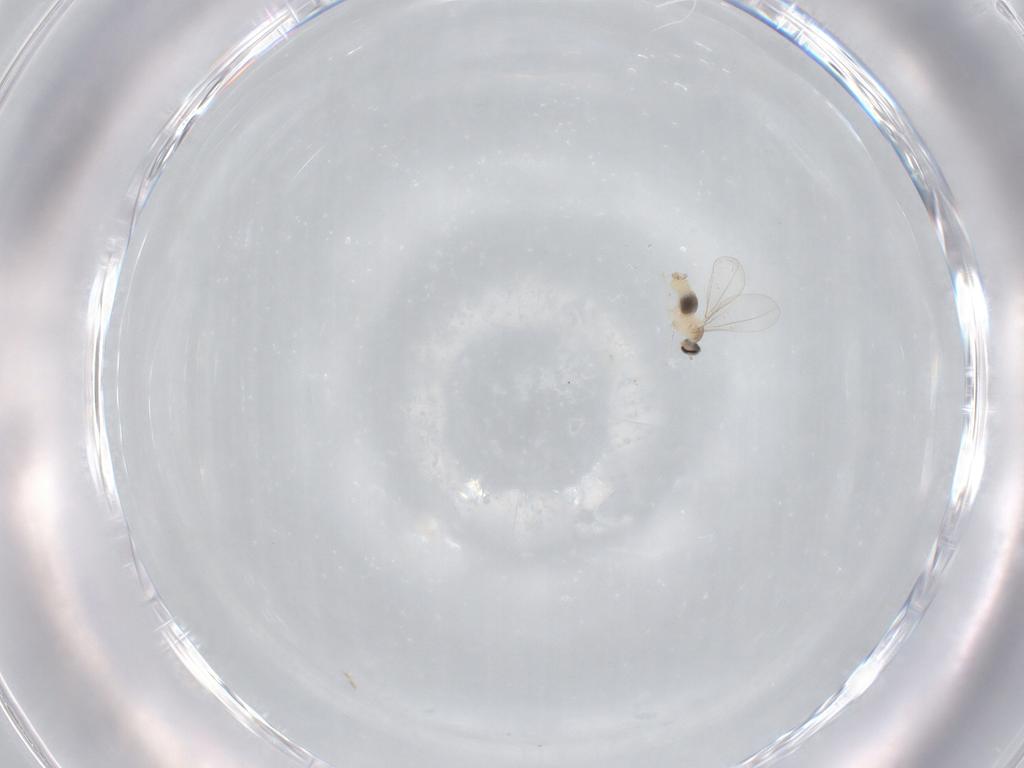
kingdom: Animalia
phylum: Arthropoda
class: Insecta
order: Diptera
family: Cecidomyiidae
